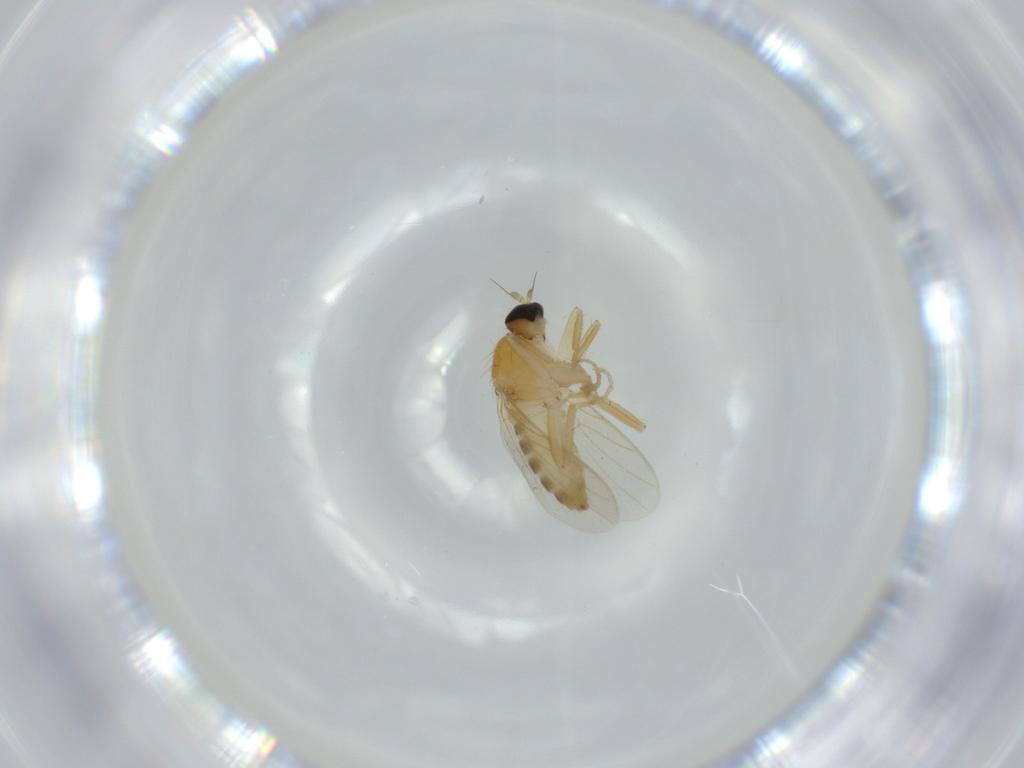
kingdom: Animalia
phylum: Arthropoda
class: Insecta
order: Diptera
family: Hybotidae
